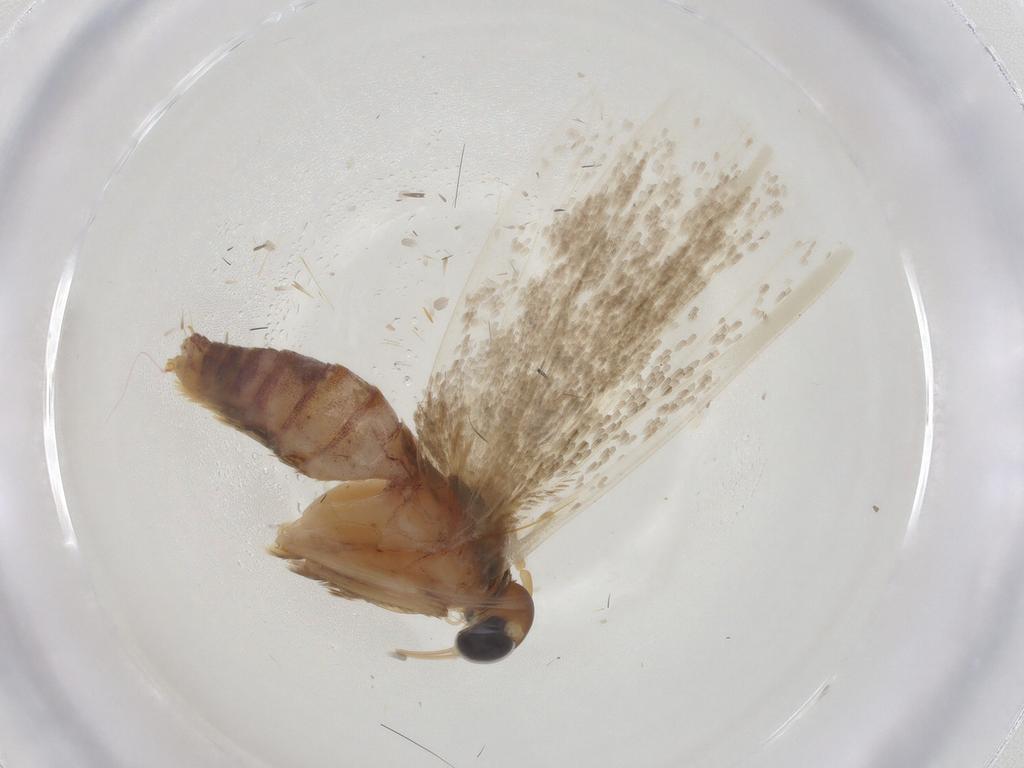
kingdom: Animalia
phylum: Arthropoda
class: Insecta
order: Lepidoptera
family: Blastobasidae
